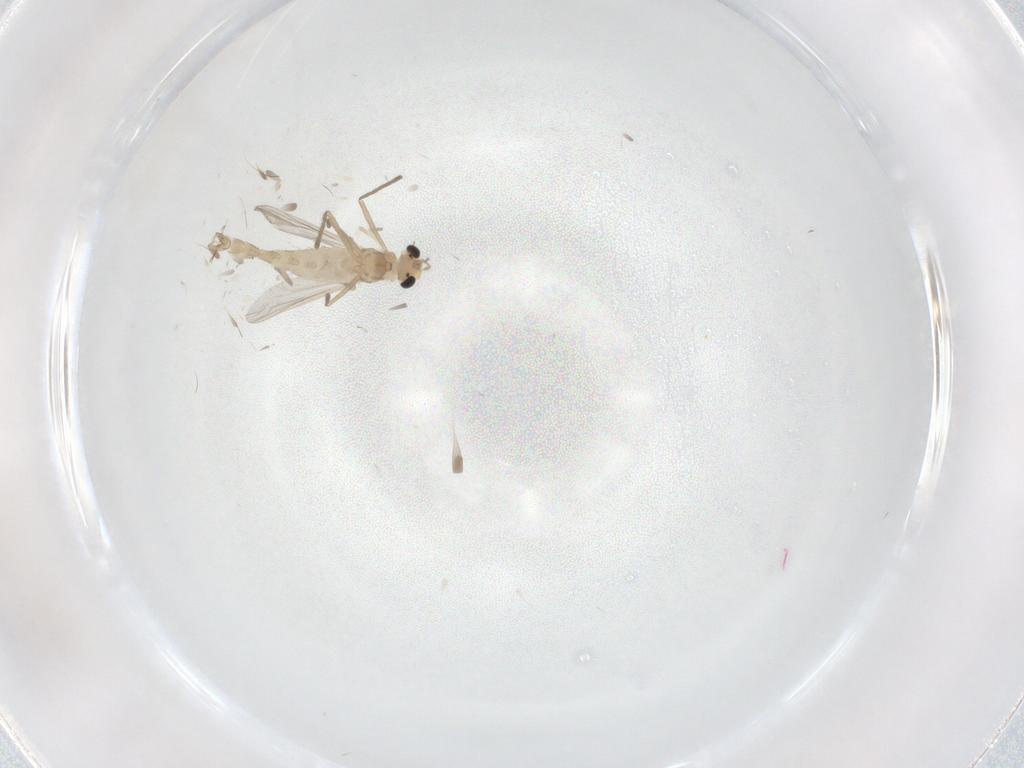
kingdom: Animalia
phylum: Arthropoda
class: Insecta
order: Diptera
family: Chironomidae
